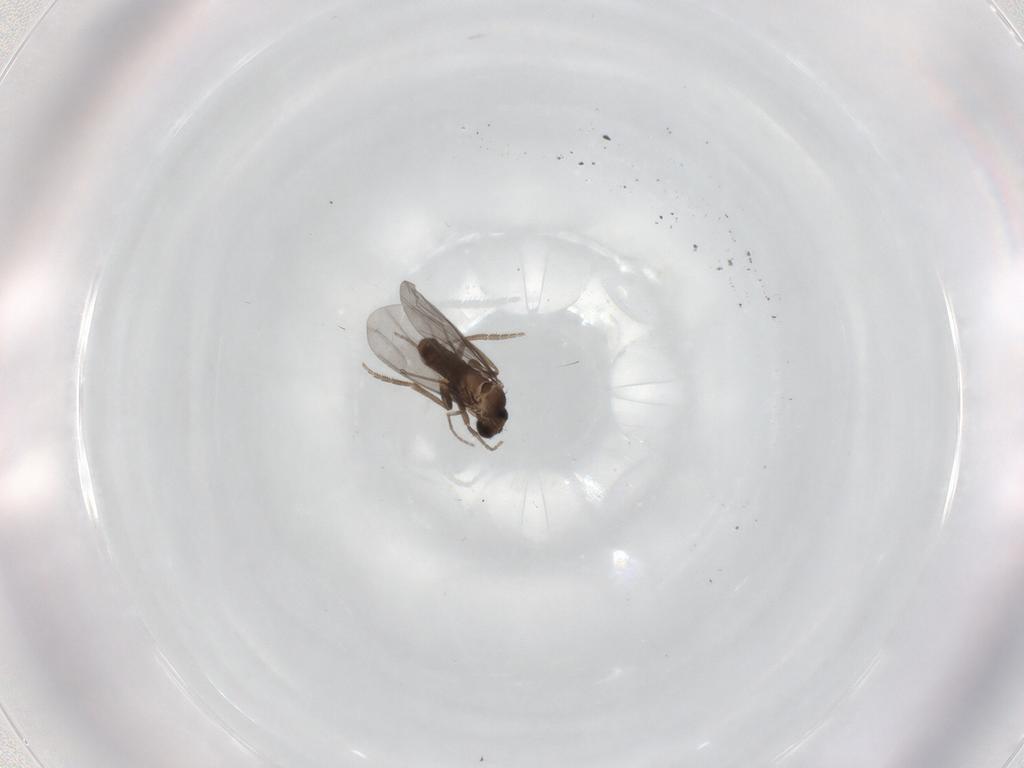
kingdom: Animalia
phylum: Arthropoda
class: Insecta
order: Diptera
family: Phoridae
